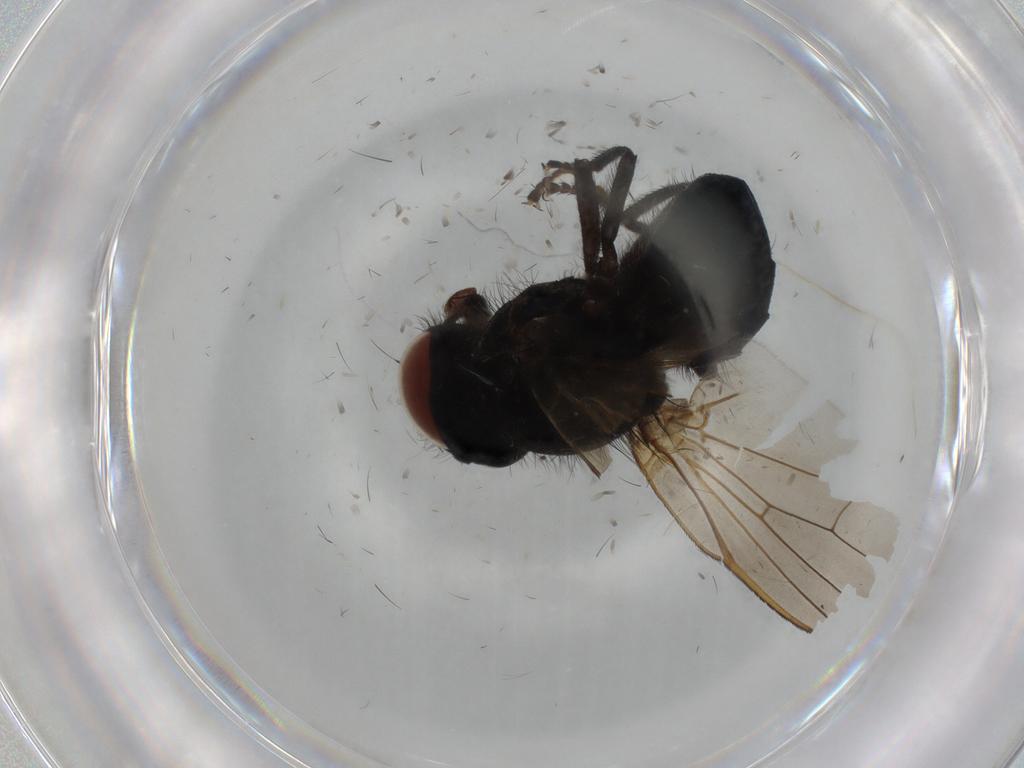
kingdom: Animalia
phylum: Arthropoda
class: Insecta
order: Diptera
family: Lonchaeidae
